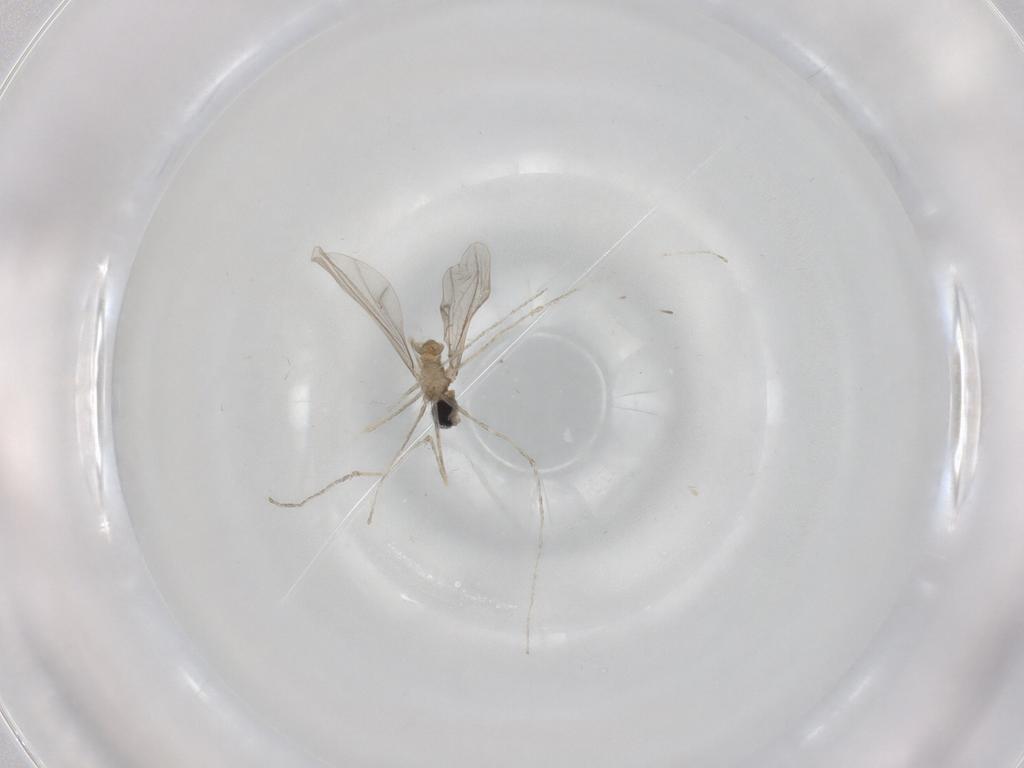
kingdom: Animalia
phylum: Arthropoda
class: Insecta
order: Diptera
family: Cecidomyiidae
